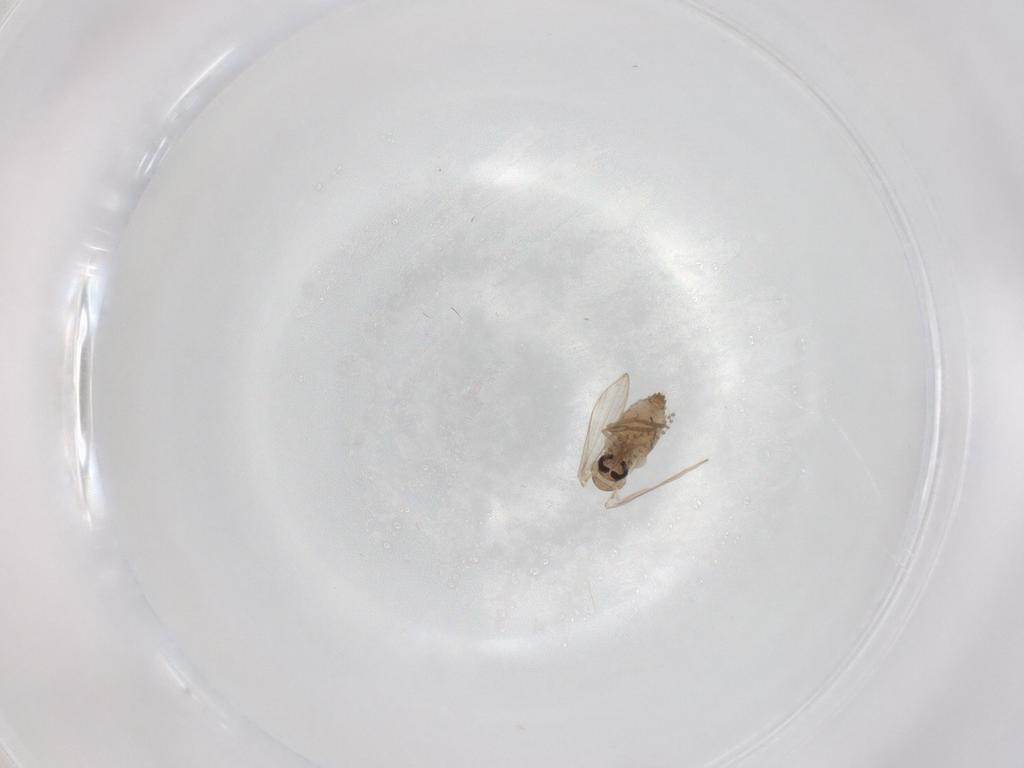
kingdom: Animalia
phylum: Arthropoda
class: Insecta
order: Diptera
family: Psychodidae
